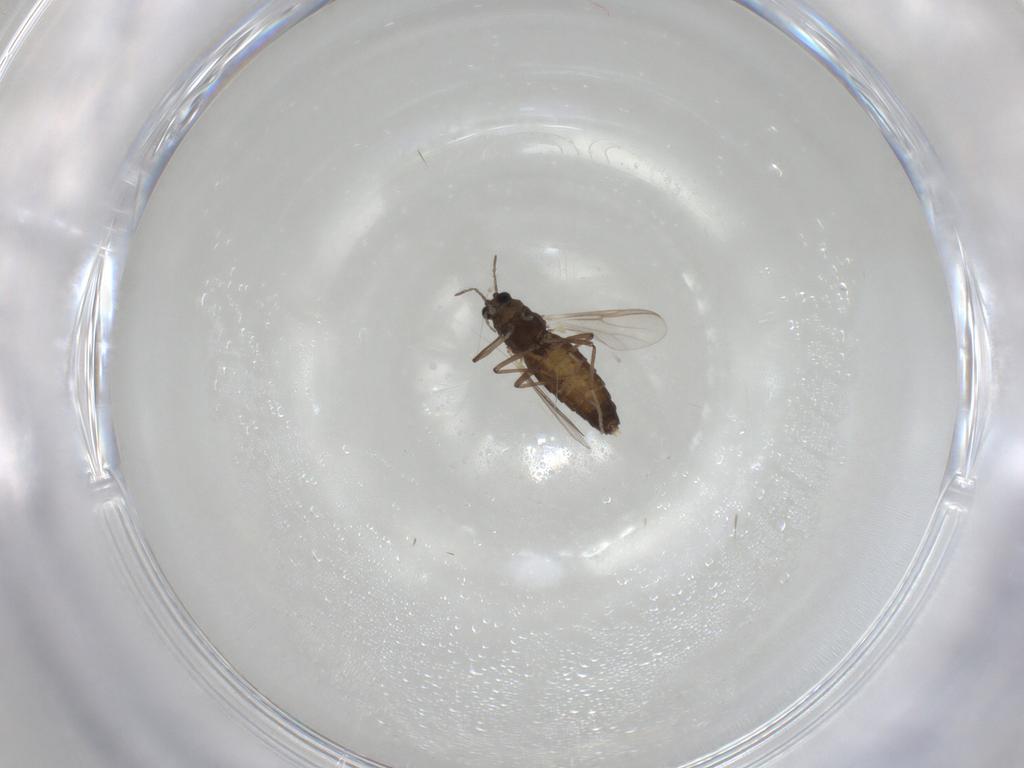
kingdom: Animalia
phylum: Arthropoda
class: Insecta
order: Diptera
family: Chironomidae
